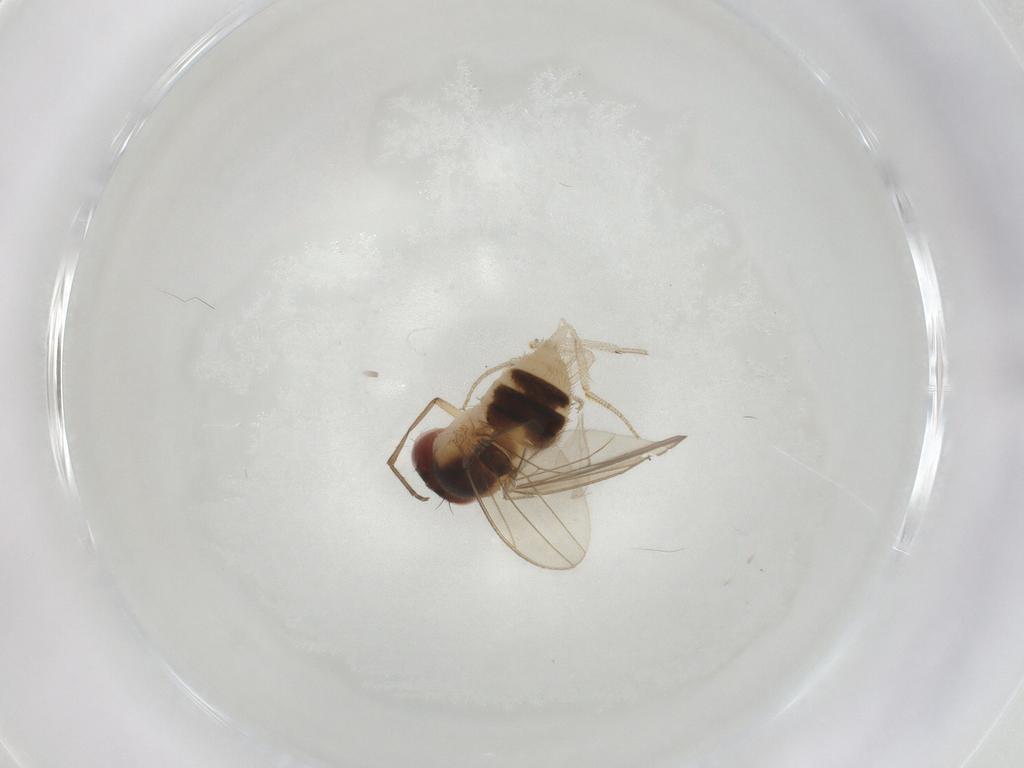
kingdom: Animalia
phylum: Arthropoda
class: Insecta
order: Diptera
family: Drosophilidae
